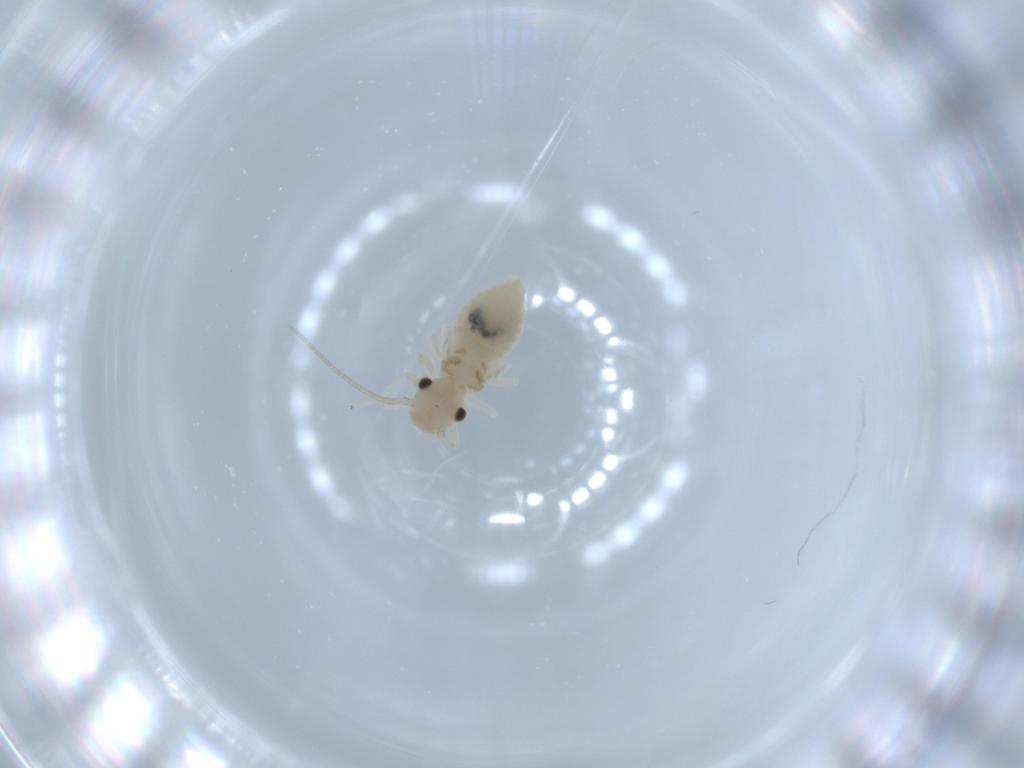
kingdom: Animalia
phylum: Arthropoda
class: Insecta
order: Psocodea
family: Caeciliusidae
